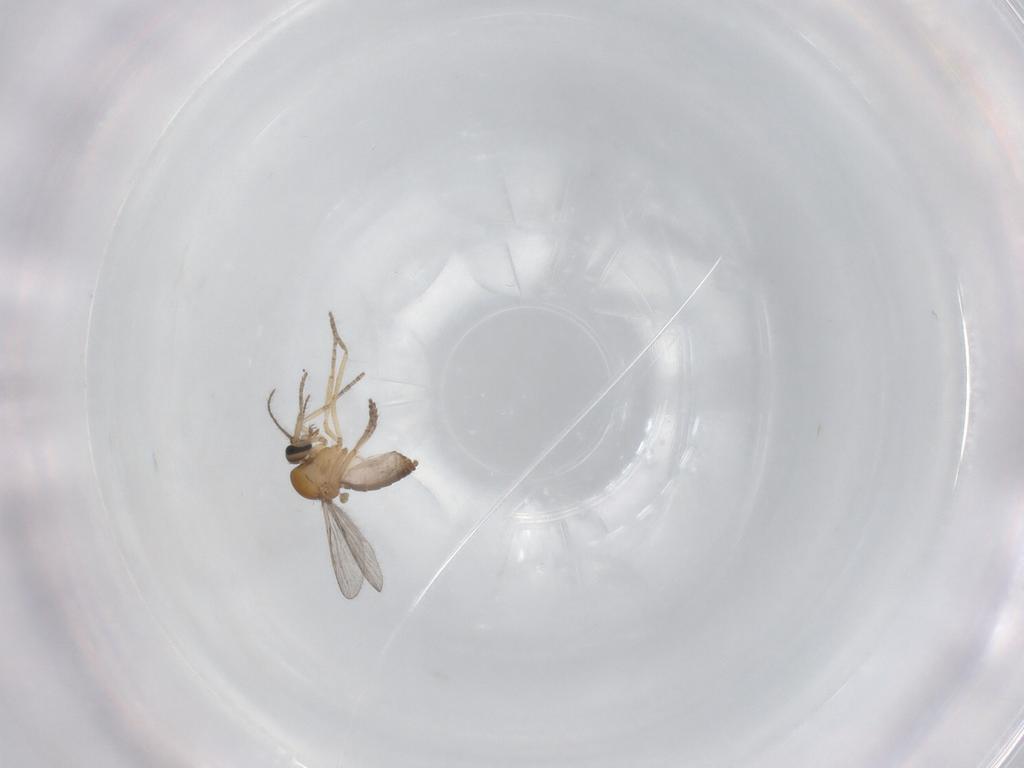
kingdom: Animalia
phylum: Arthropoda
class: Insecta
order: Diptera
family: Ceratopogonidae
